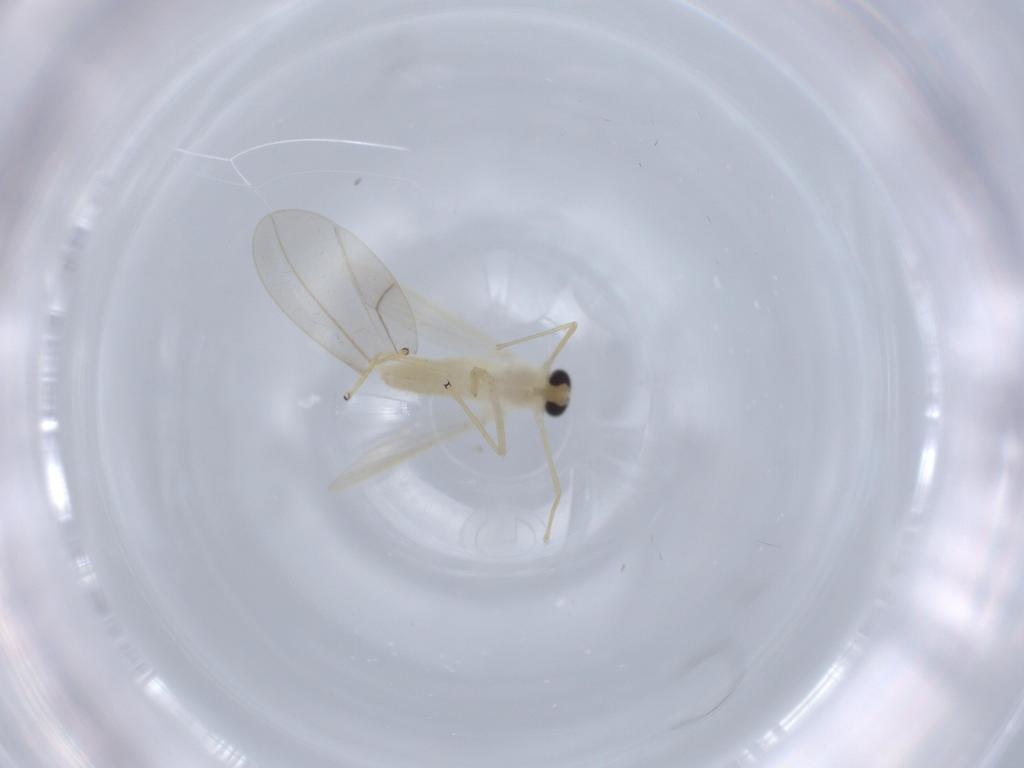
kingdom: Animalia
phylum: Arthropoda
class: Insecta
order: Diptera
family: Chironomidae
